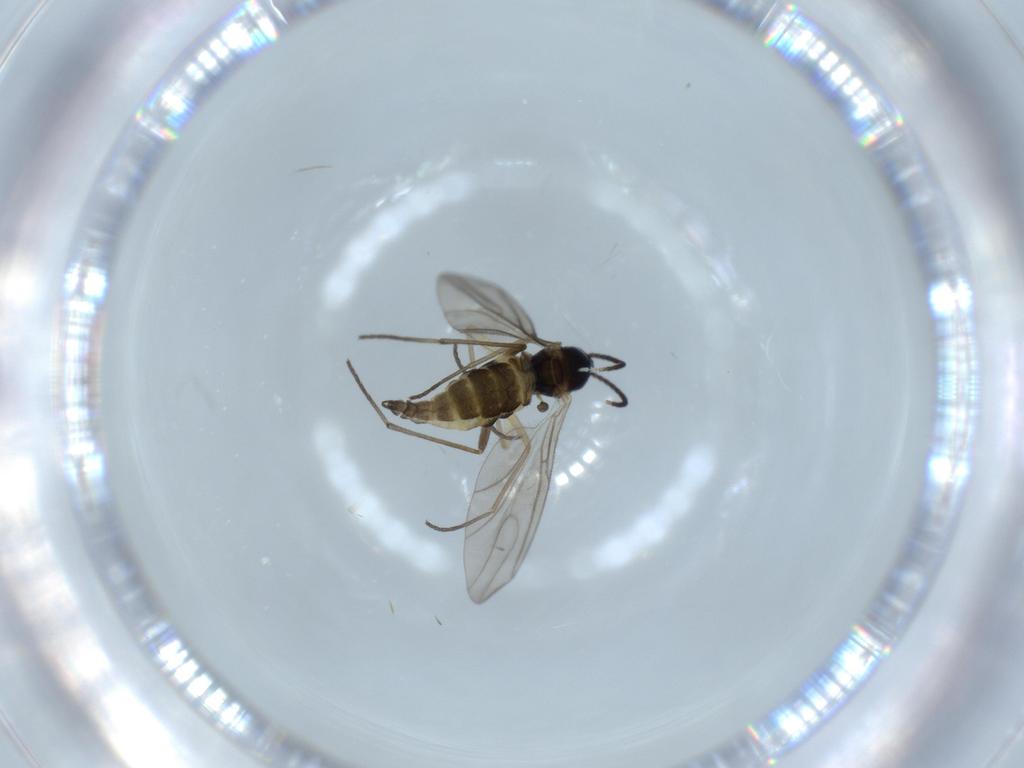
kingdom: Animalia
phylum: Arthropoda
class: Insecta
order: Diptera
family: Sciaridae
